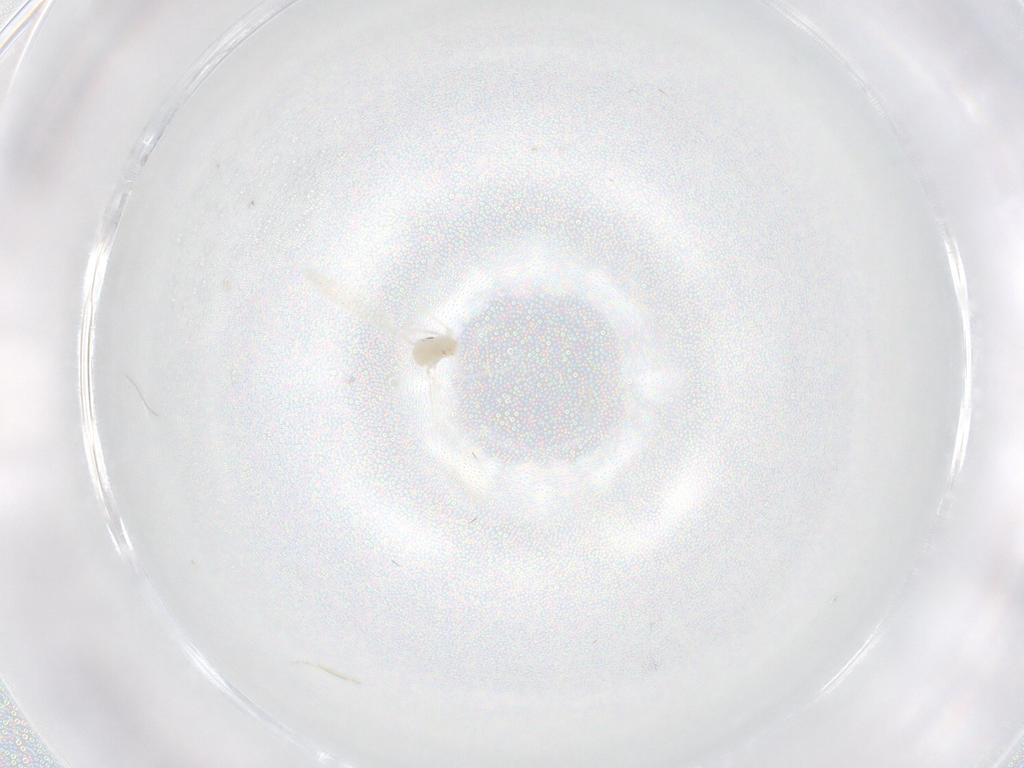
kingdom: Animalia
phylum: Arthropoda
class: Insecta
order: Diptera
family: Cecidomyiidae
